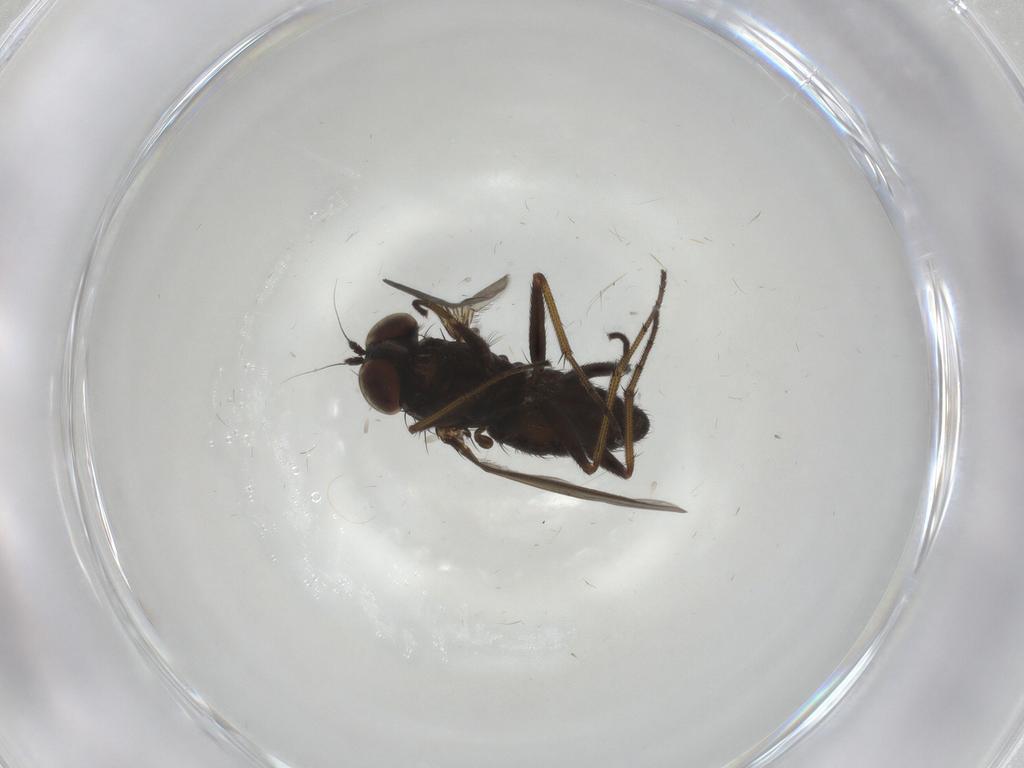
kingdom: Animalia
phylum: Arthropoda
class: Insecta
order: Diptera
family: Dolichopodidae
